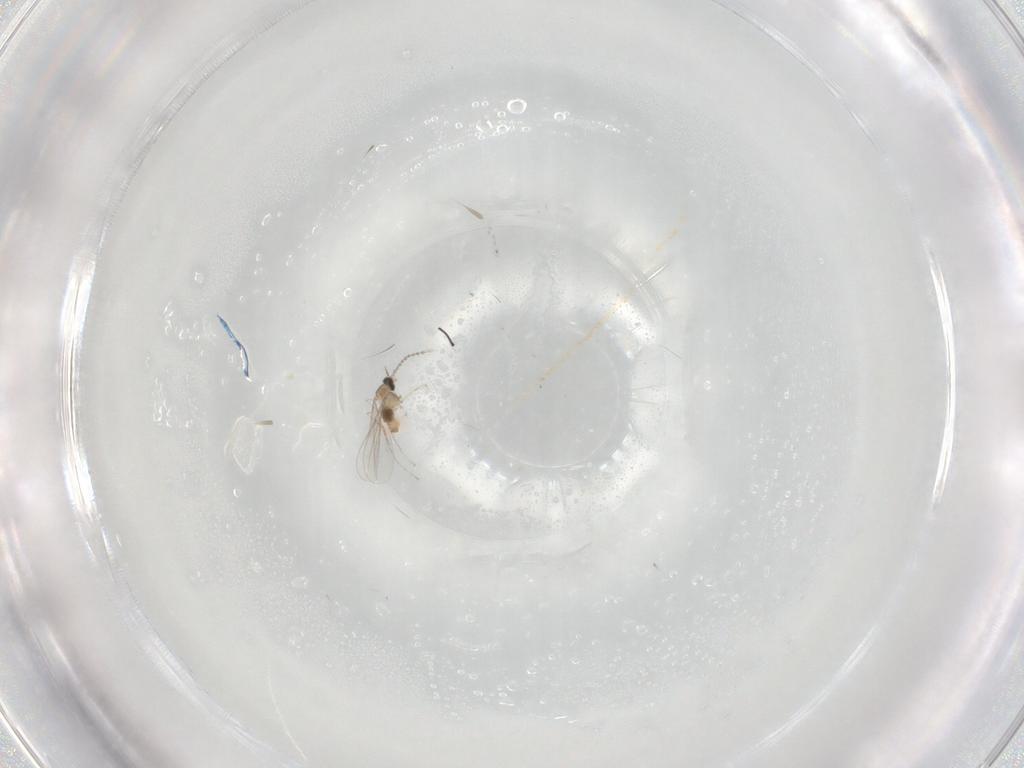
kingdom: Animalia
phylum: Arthropoda
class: Insecta
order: Diptera
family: Cecidomyiidae
